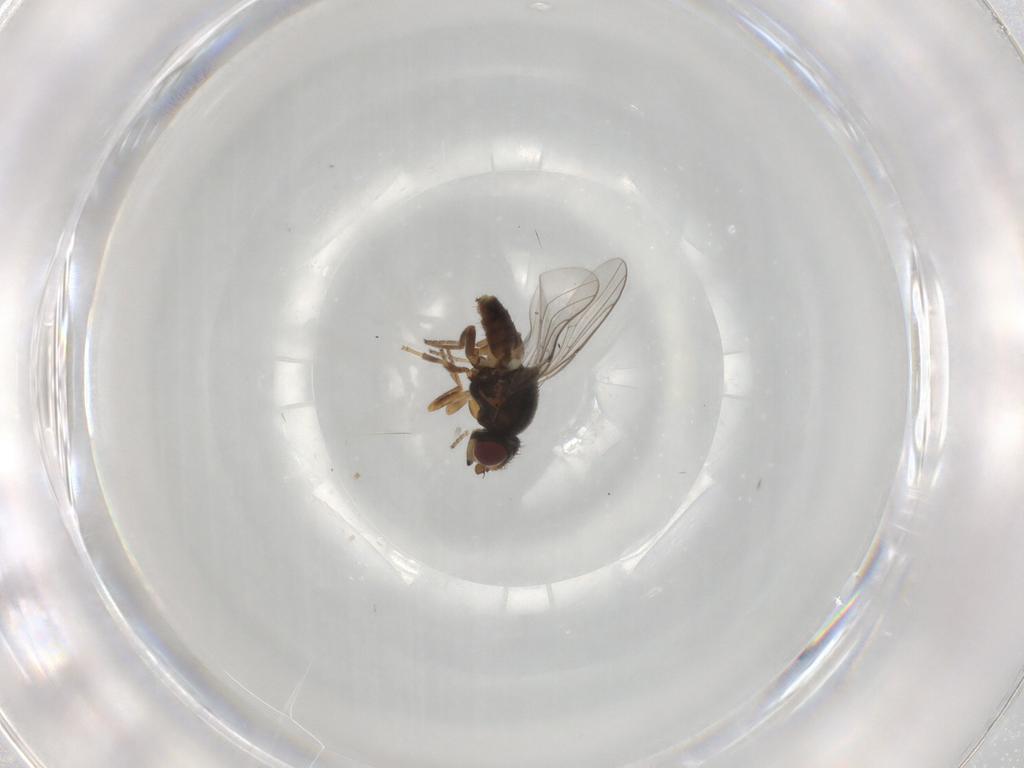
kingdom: Animalia
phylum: Arthropoda
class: Insecta
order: Diptera
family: Chloropidae
